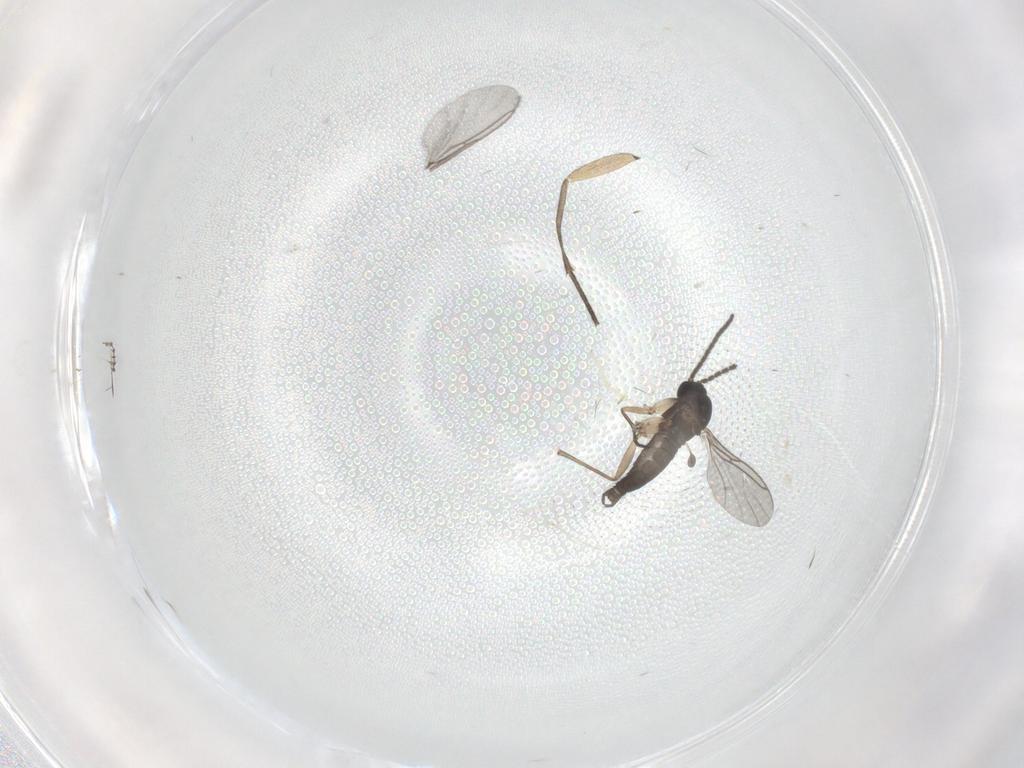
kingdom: Animalia
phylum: Arthropoda
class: Insecta
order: Diptera
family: Sciaridae
